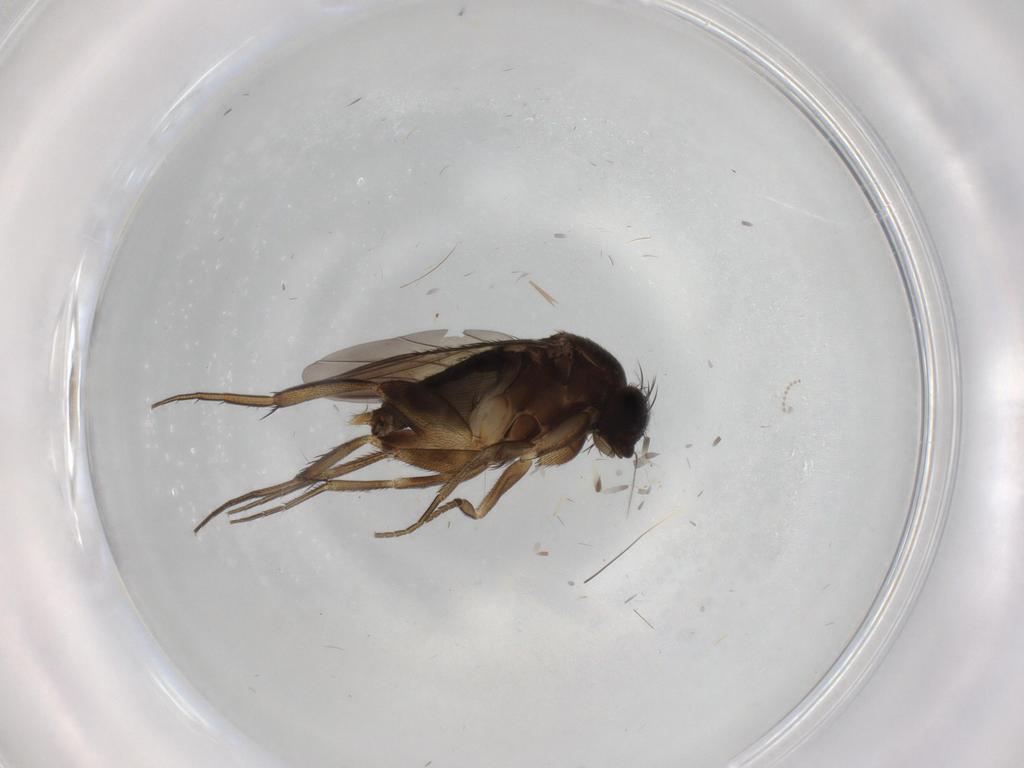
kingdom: Animalia
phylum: Arthropoda
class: Insecta
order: Diptera
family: Phoridae
